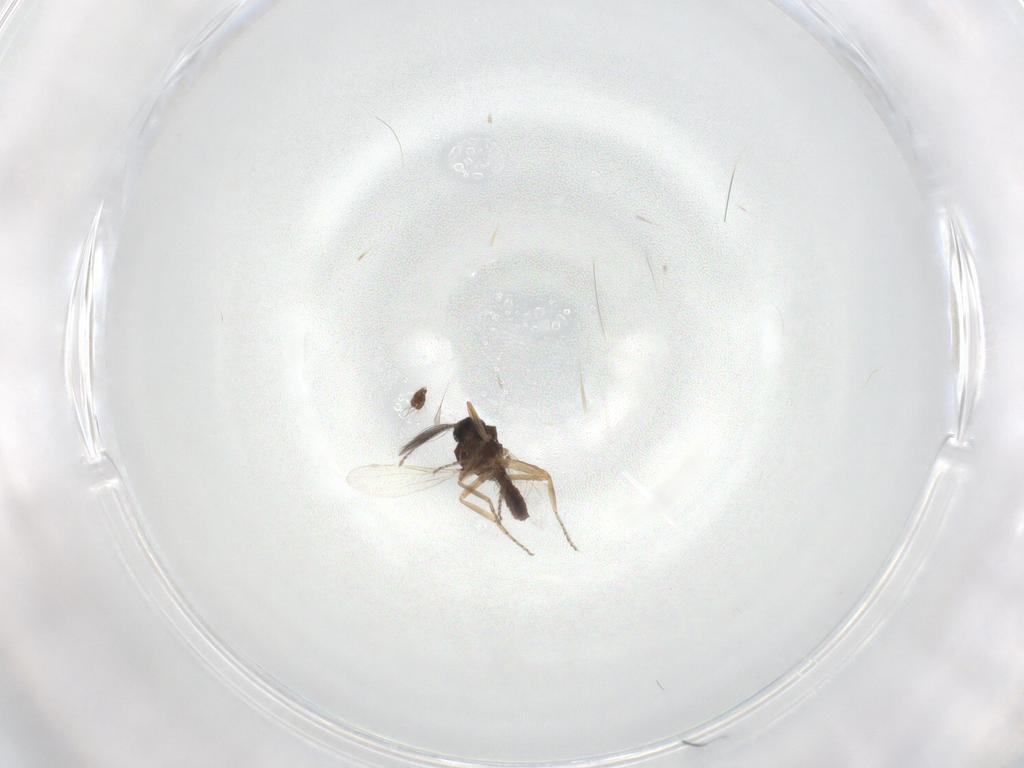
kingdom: Animalia
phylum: Arthropoda
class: Insecta
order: Diptera
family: Ceratopogonidae
